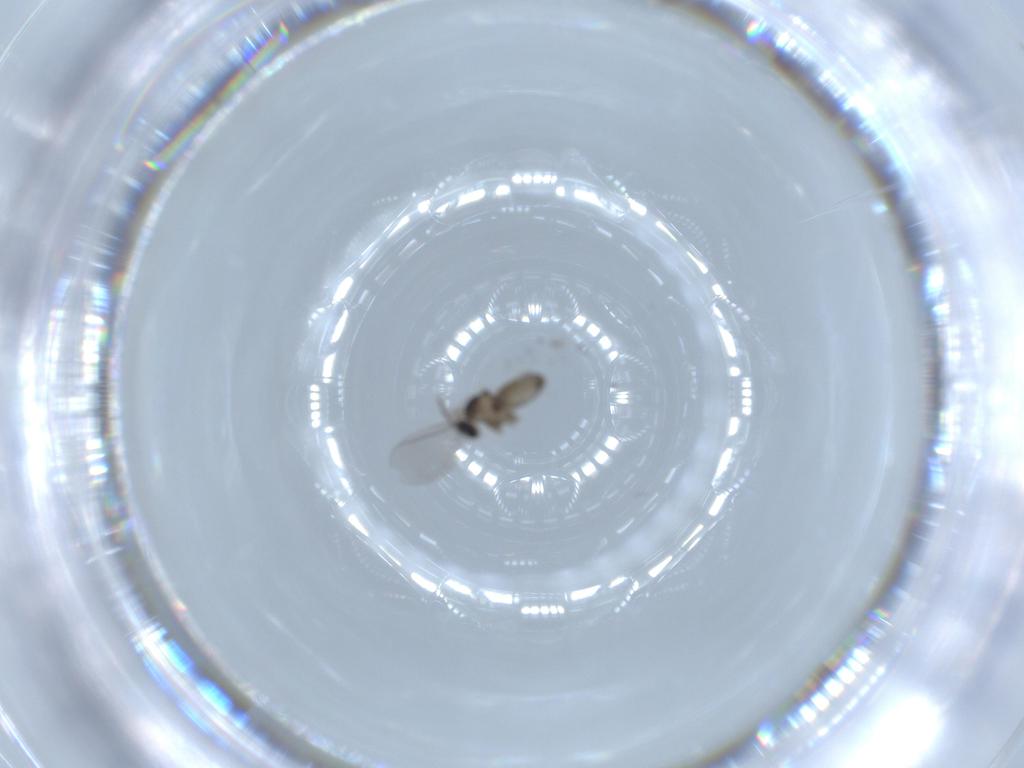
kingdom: Animalia
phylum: Arthropoda
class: Insecta
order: Diptera
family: Cecidomyiidae
